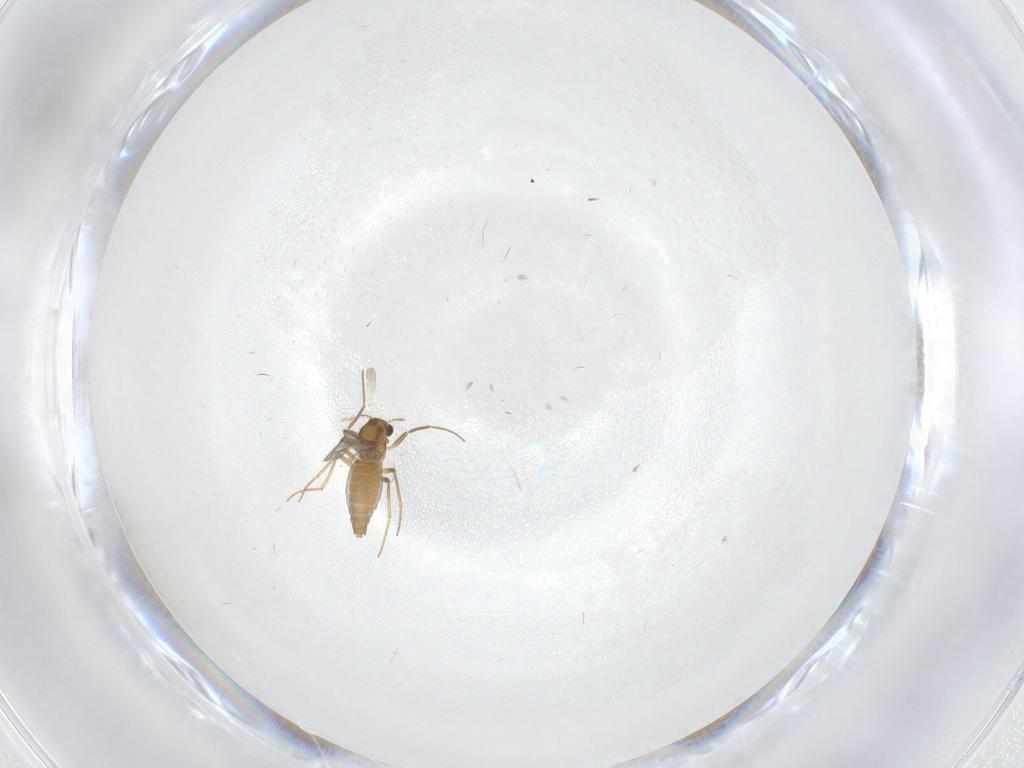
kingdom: Animalia
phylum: Arthropoda
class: Insecta
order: Diptera
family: Chironomidae
